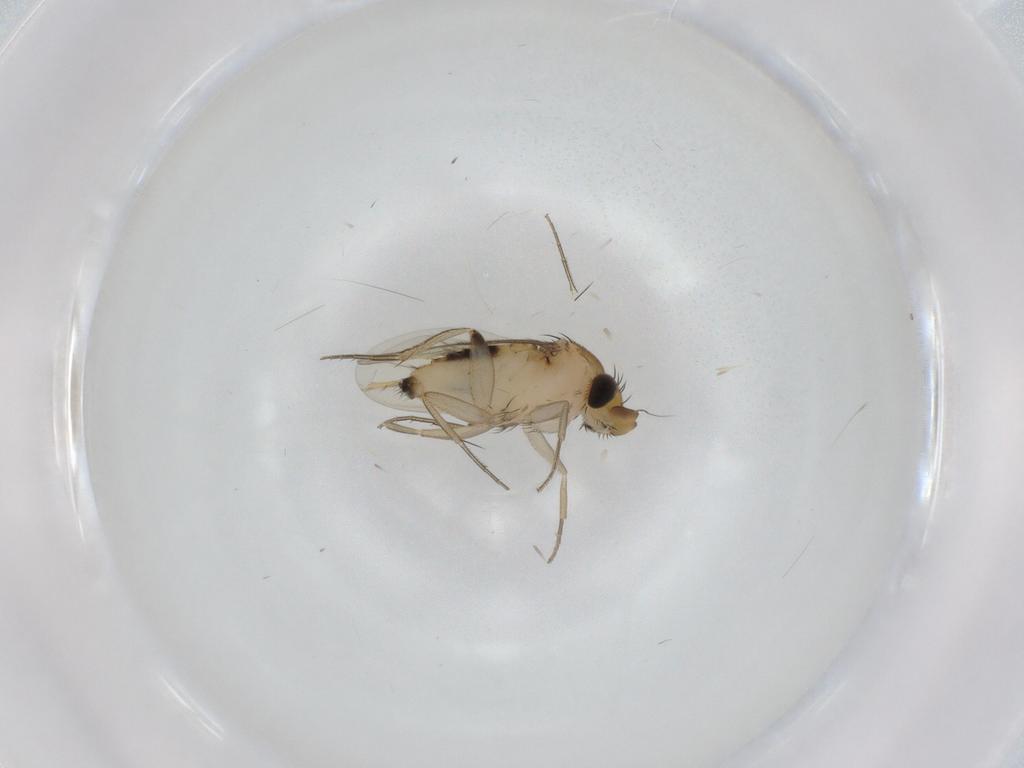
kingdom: Animalia
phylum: Arthropoda
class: Insecta
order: Diptera
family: Phoridae
